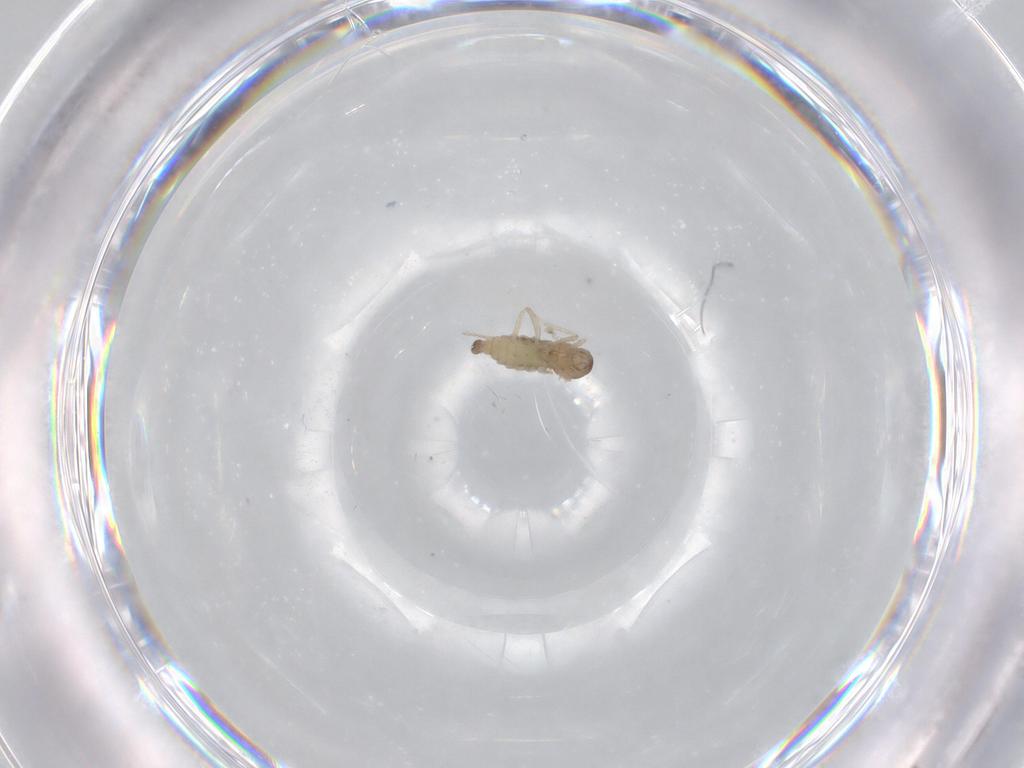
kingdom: Animalia
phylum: Arthropoda
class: Insecta
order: Diptera
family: Cecidomyiidae
